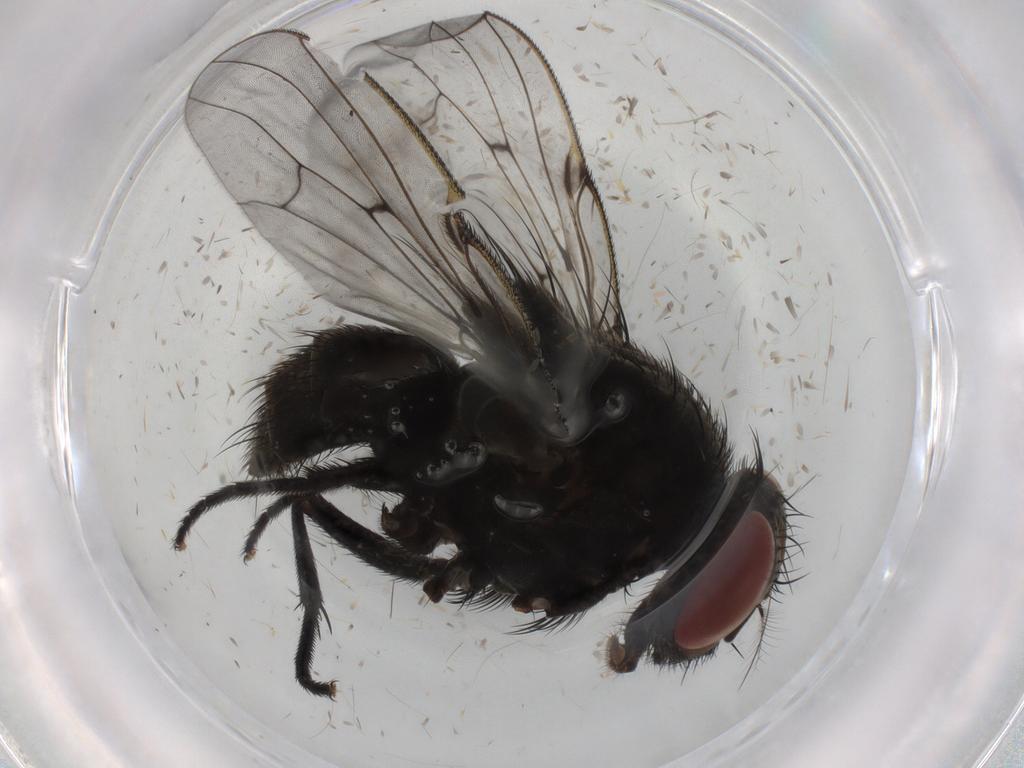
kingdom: Animalia
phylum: Arthropoda
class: Insecta
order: Diptera
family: Muscidae
